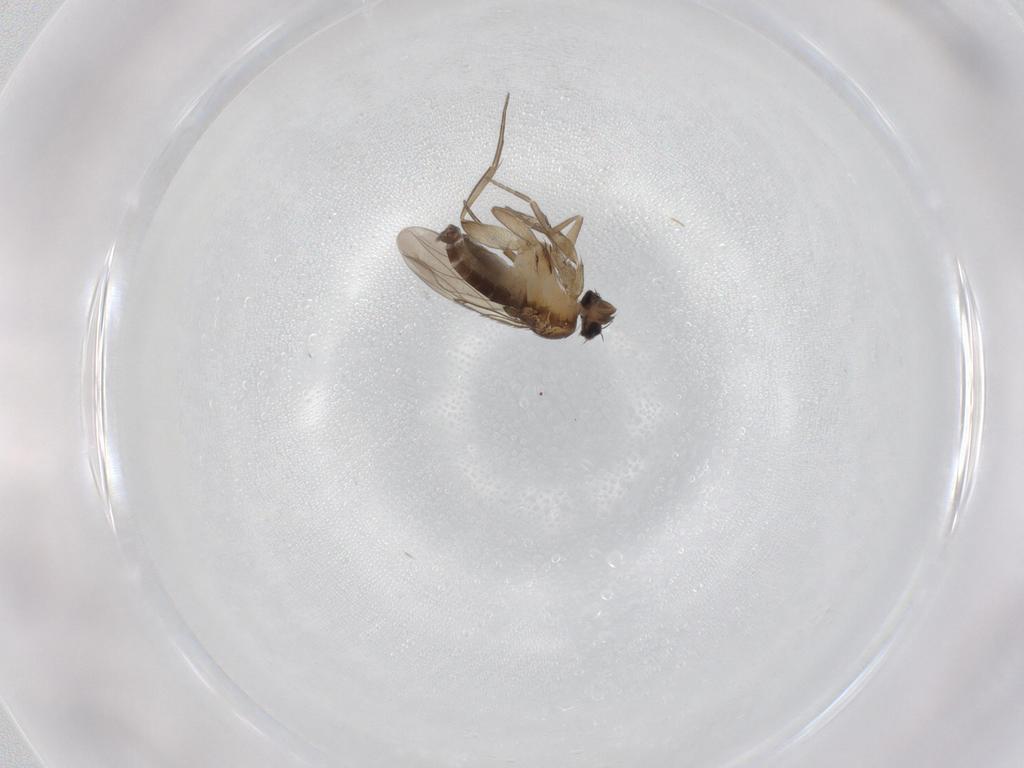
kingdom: Animalia
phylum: Arthropoda
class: Insecta
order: Diptera
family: Phoridae
